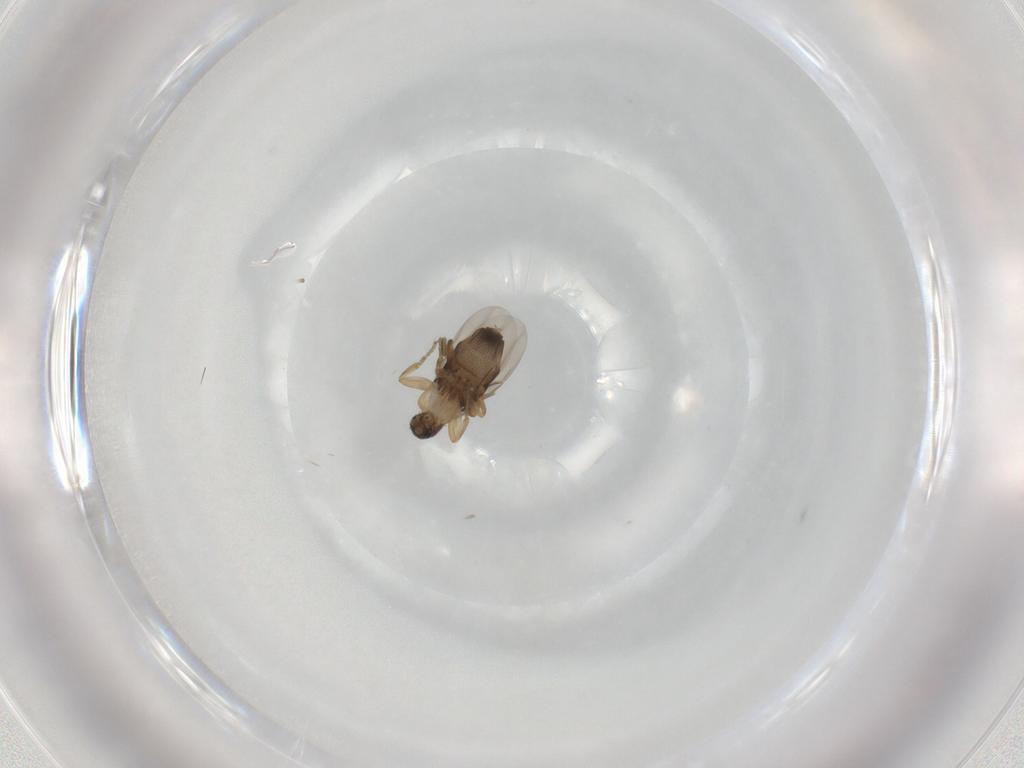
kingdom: Animalia
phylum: Arthropoda
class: Insecta
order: Diptera
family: Phoridae
